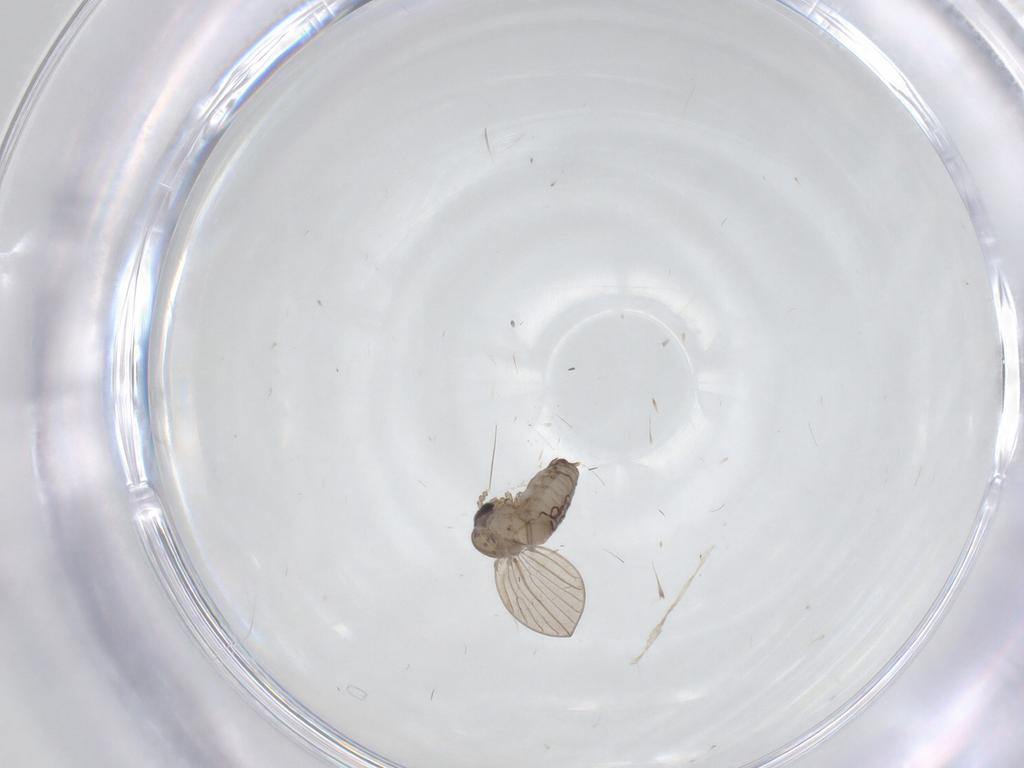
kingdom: Animalia
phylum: Arthropoda
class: Insecta
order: Diptera
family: Psychodidae
